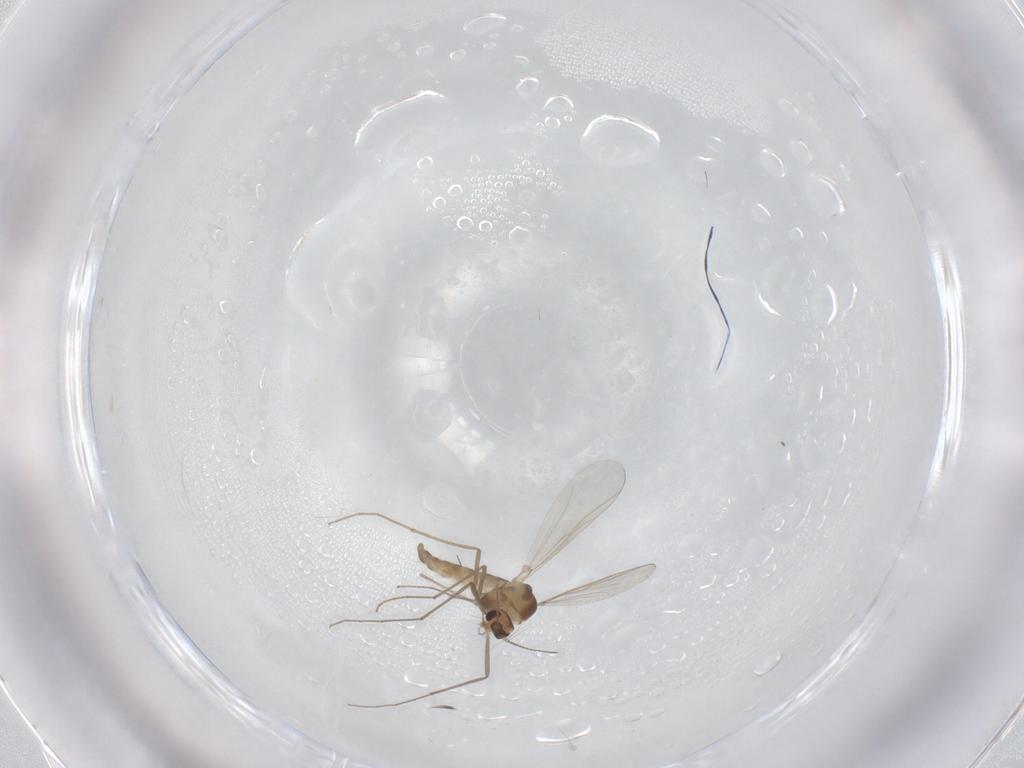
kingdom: Animalia
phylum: Arthropoda
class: Insecta
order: Diptera
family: Chironomidae
